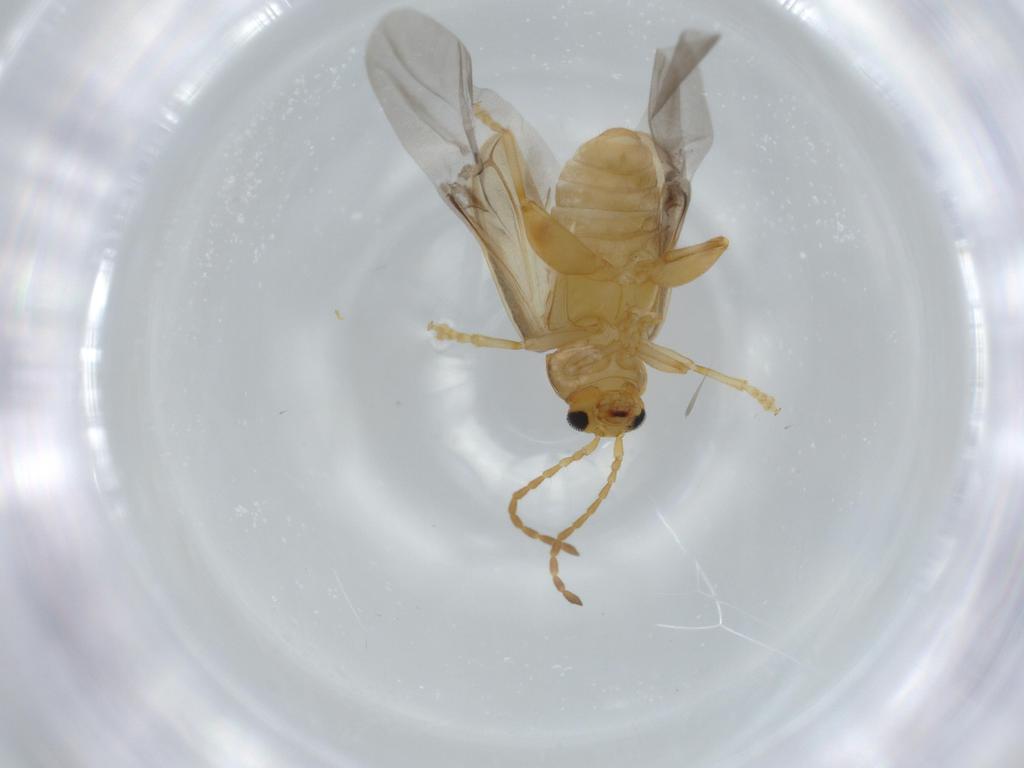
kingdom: Animalia
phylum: Arthropoda
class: Insecta
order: Coleoptera
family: Chrysomelidae
